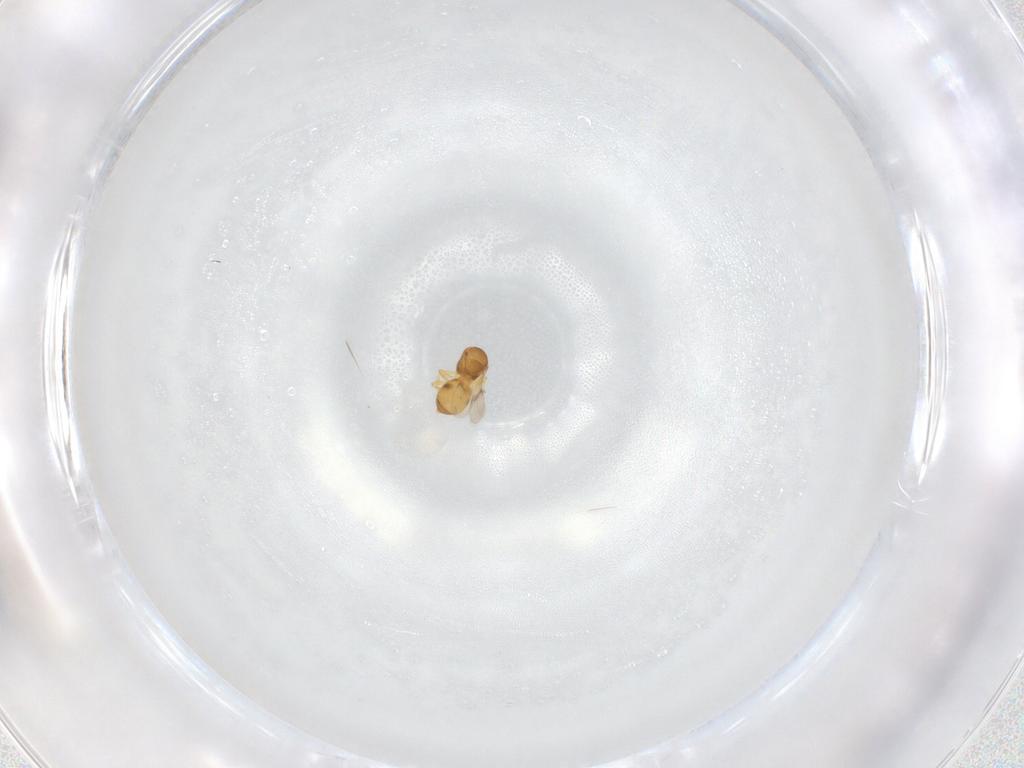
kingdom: Animalia
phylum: Arthropoda
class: Insecta
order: Hymenoptera
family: Scelionidae
